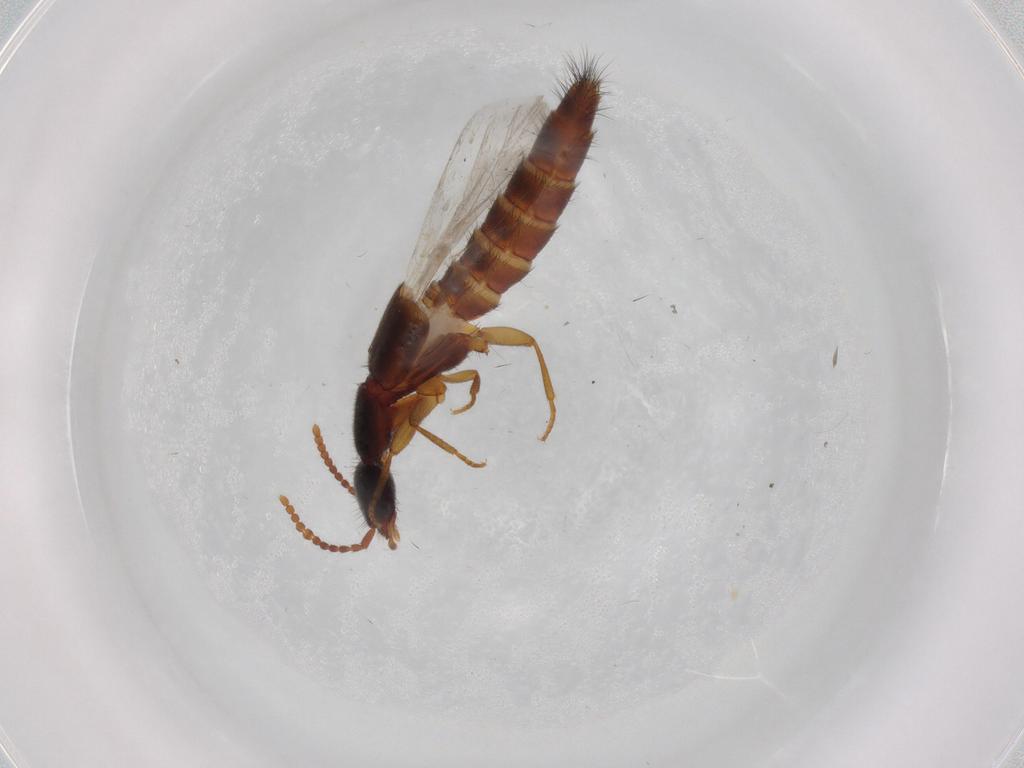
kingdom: Animalia
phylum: Arthropoda
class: Insecta
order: Coleoptera
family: Staphylinidae
